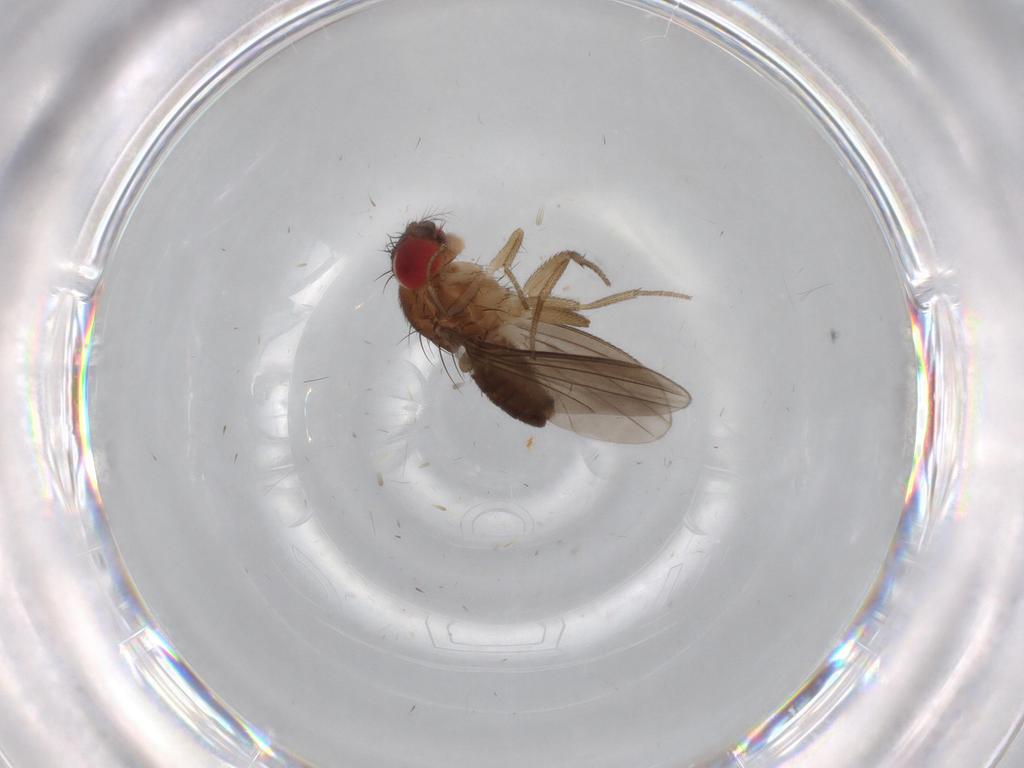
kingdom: Animalia
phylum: Arthropoda
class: Insecta
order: Diptera
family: Drosophilidae
